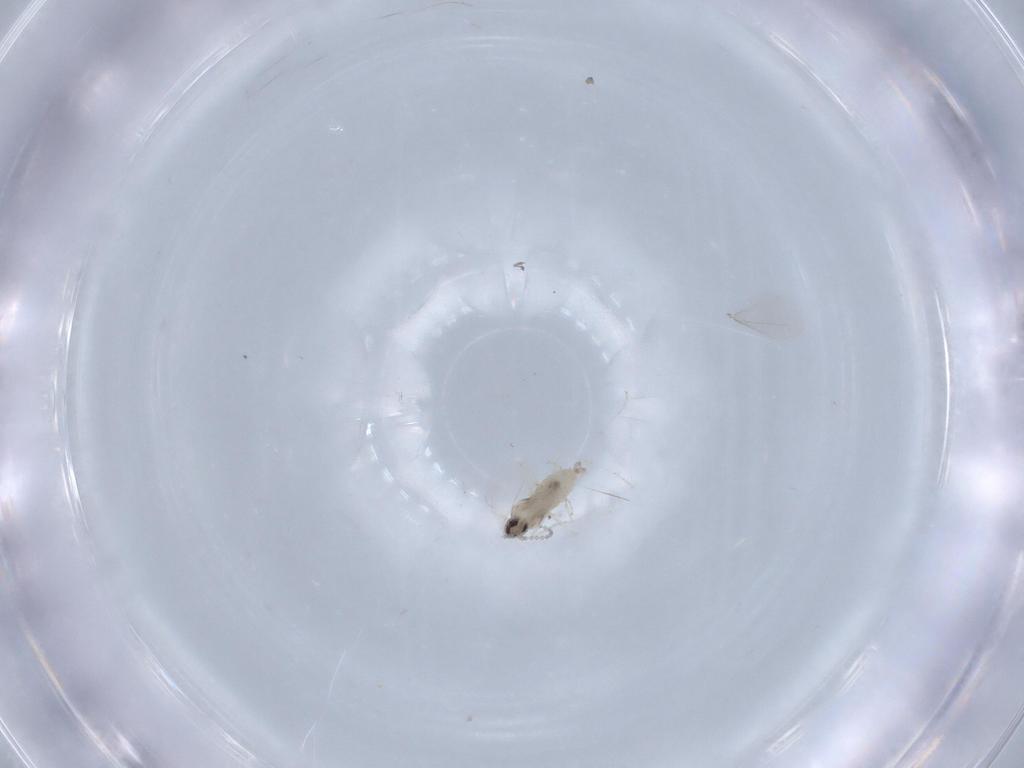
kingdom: Animalia
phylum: Arthropoda
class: Insecta
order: Diptera
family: Cecidomyiidae
